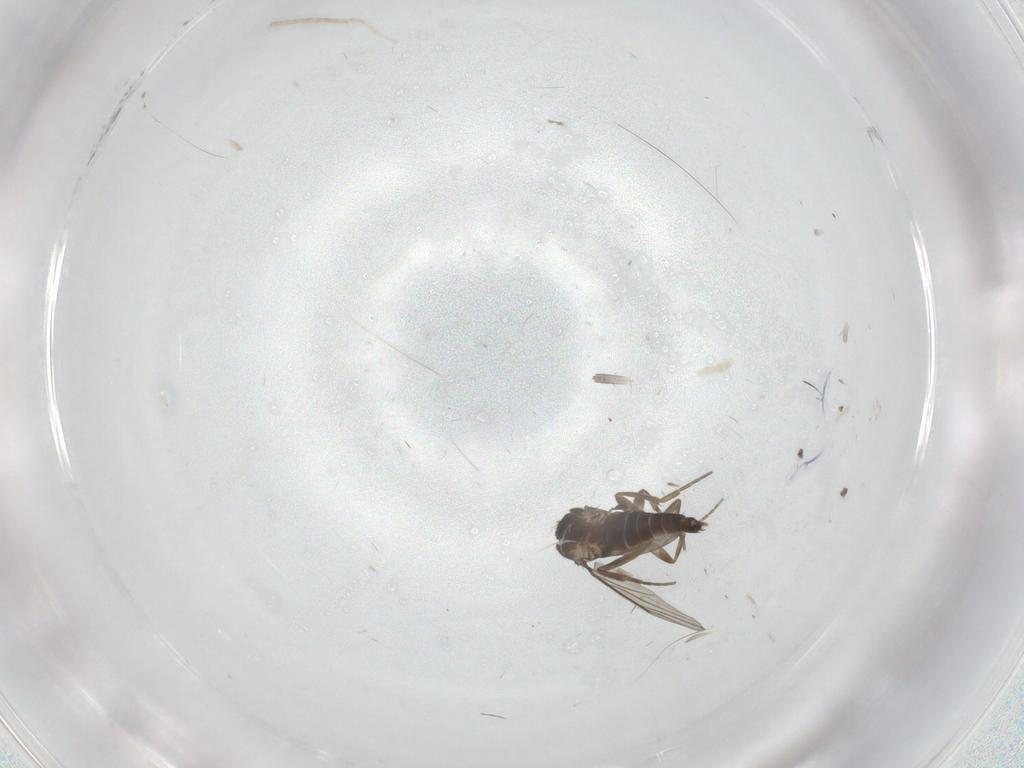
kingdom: Animalia
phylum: Arthropoda
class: Insecta
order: Diptera
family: Phoridae
